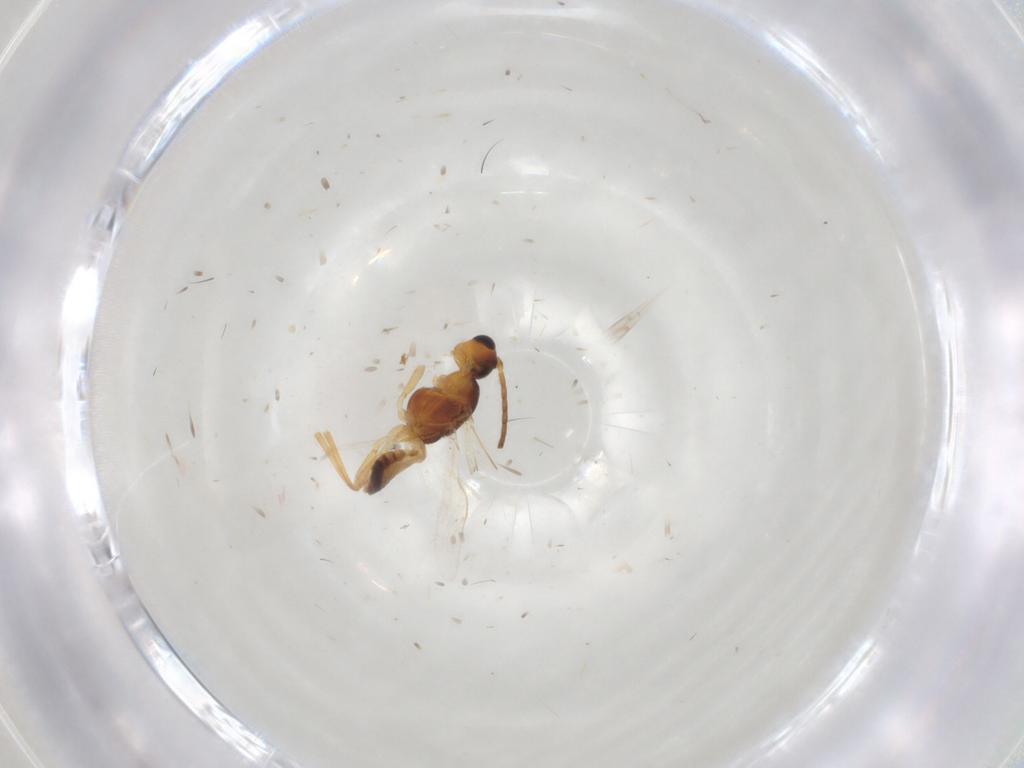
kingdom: Animalia
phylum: Arthropoda
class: Insecta
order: Hymenoptera
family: Braconidae
